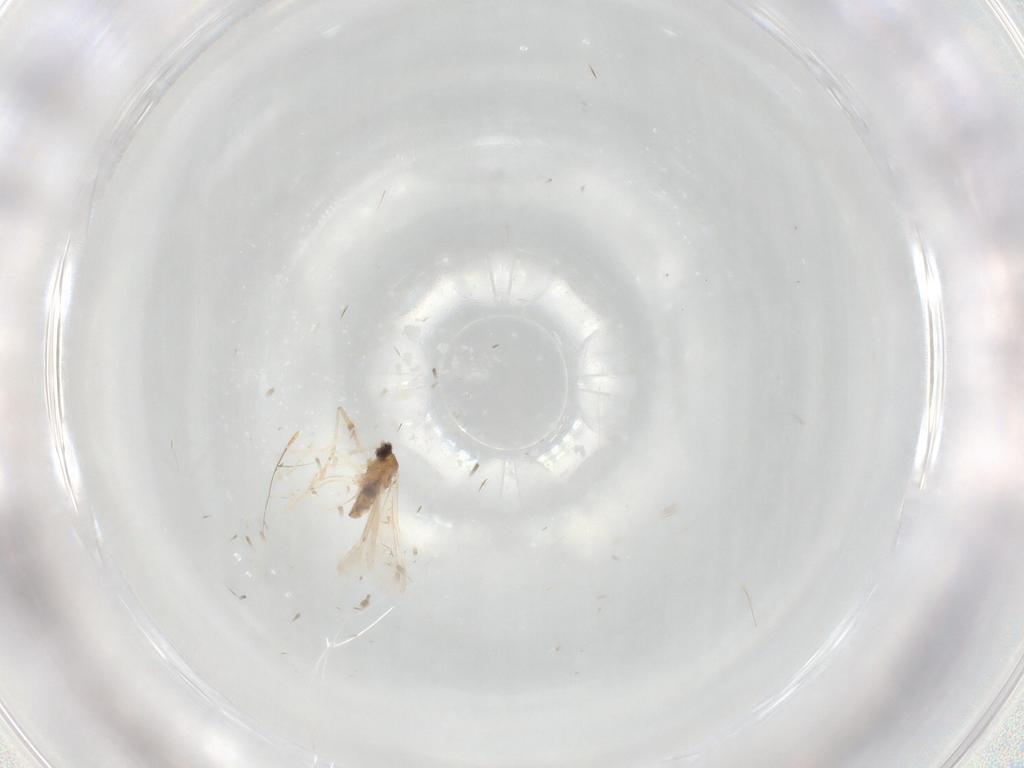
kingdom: Animalia
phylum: Arthropoda
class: Insecta
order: Diptera
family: Cecidomyiidae
